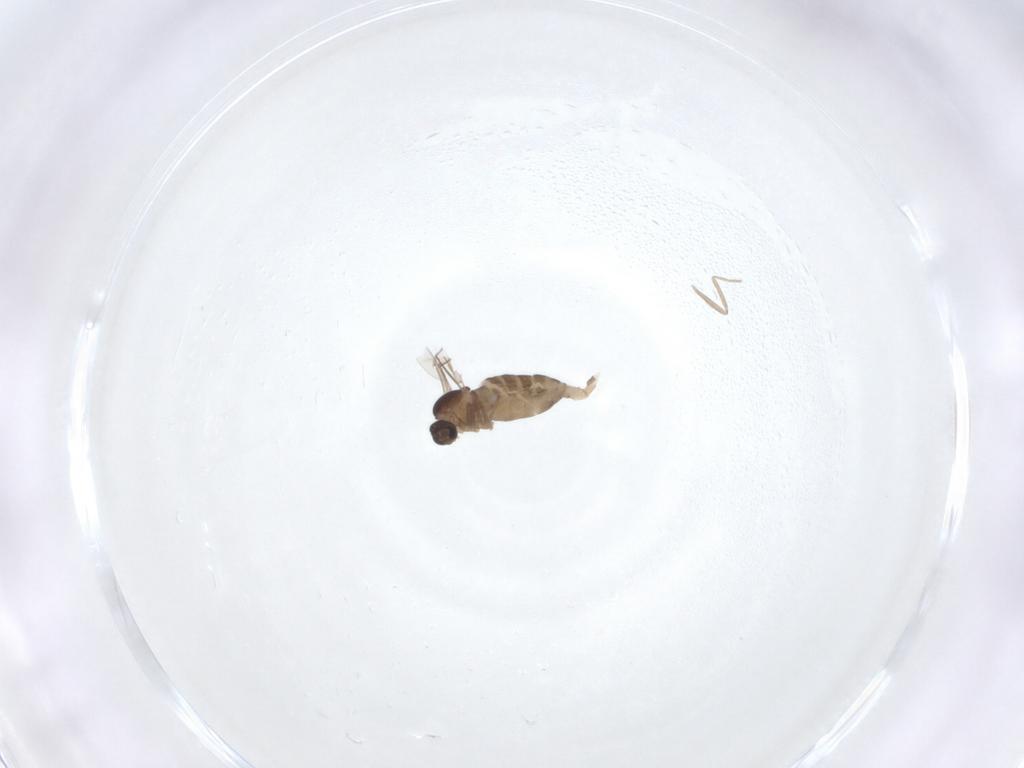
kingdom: Animalia
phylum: Arthropoda
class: Insecta
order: Diptera
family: Cecidomyiidae
